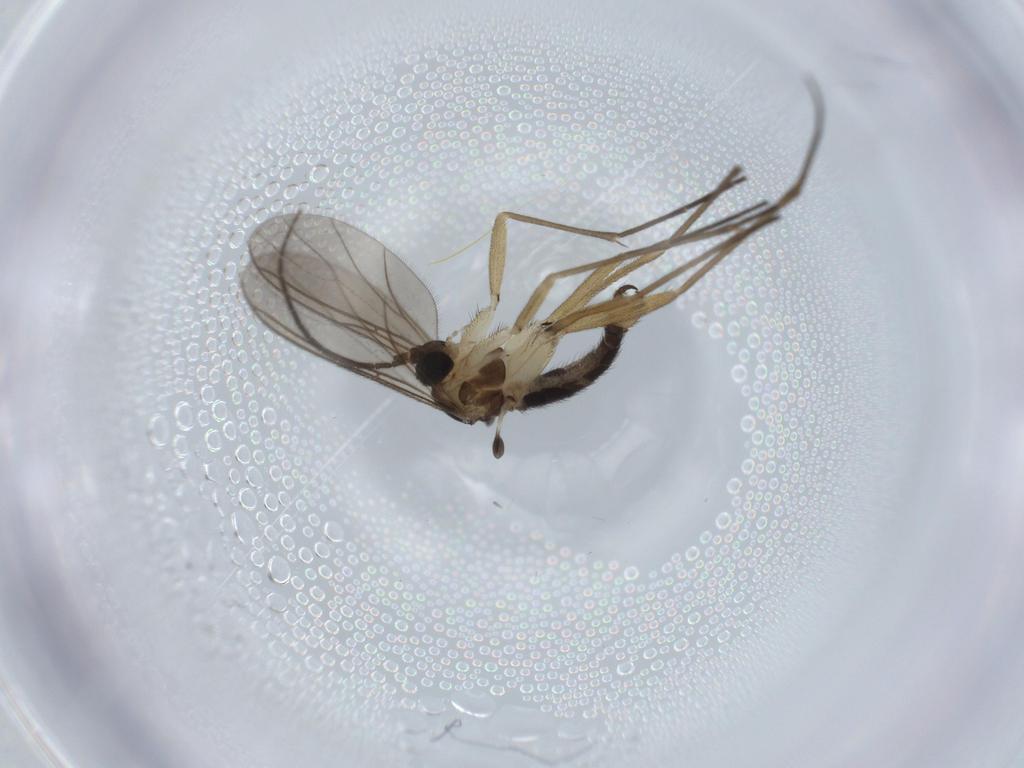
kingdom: Animalia
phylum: Arthropoda
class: Insecta
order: Diptera
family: Sciaridae
